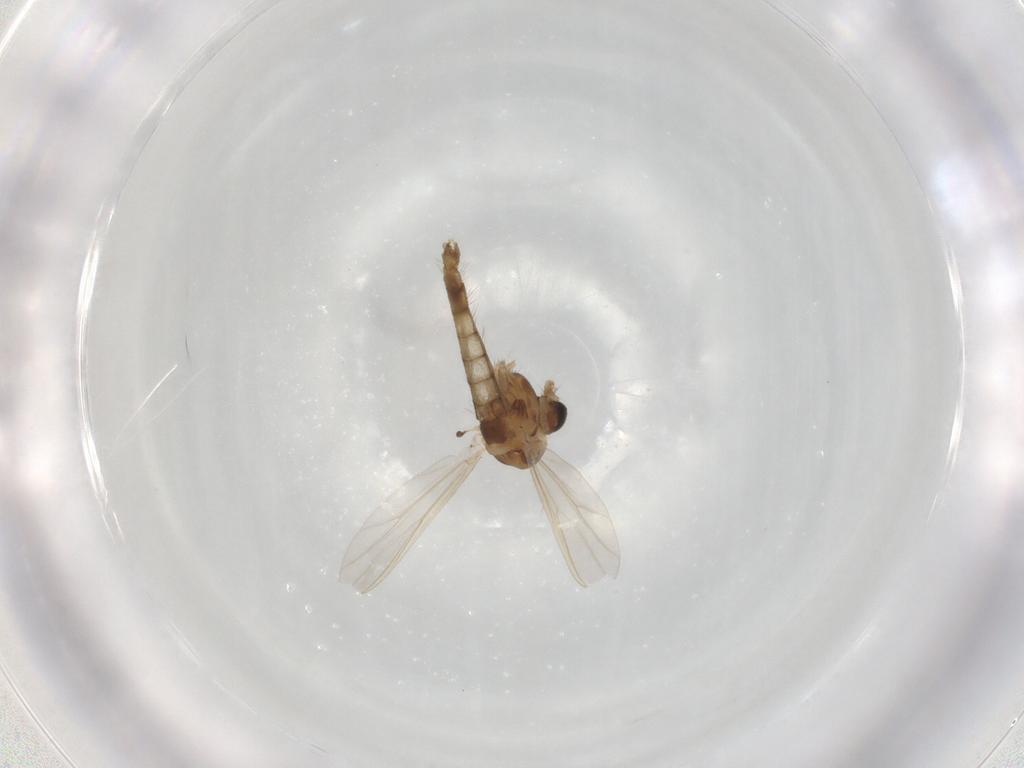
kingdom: Animalia
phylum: Arthropoda
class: Insecta
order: Diptera
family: Chironomidae
